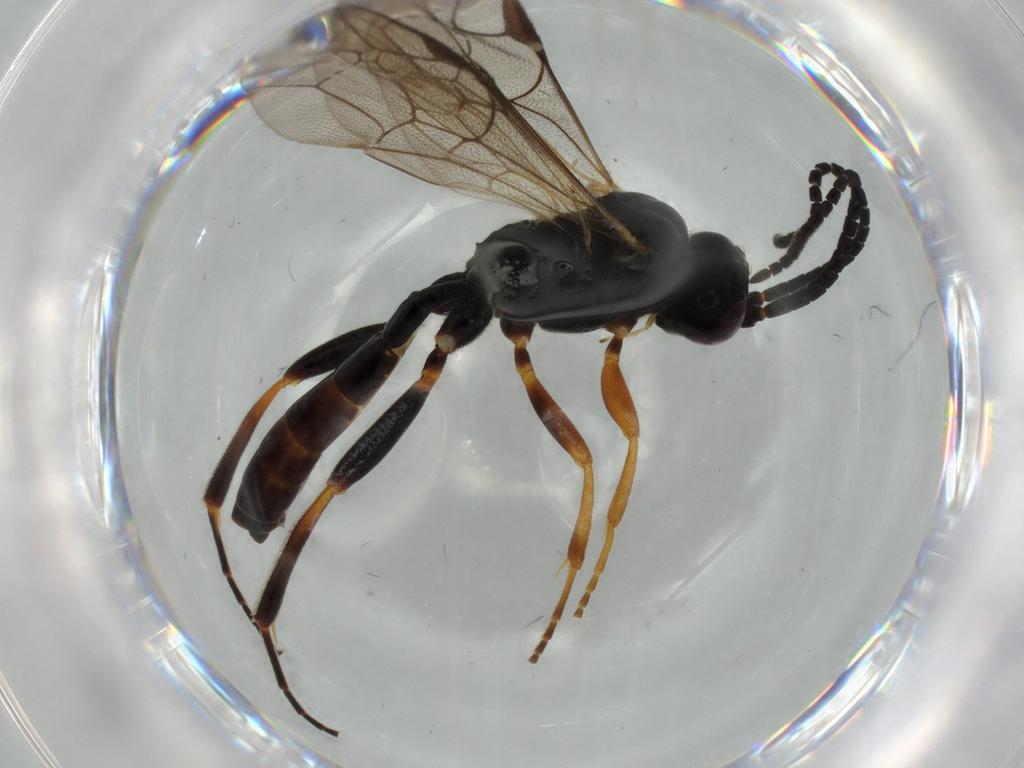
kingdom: Animalia
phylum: Arthropoda
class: Insecta
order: Hymenoptera
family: Ichneumonidae
